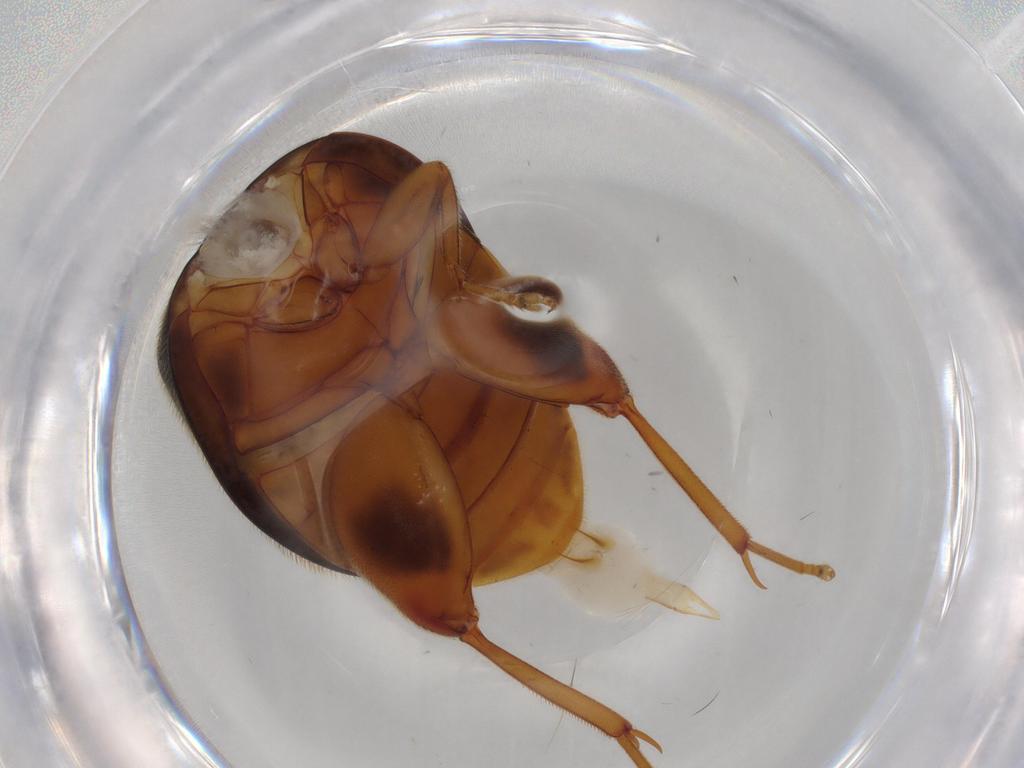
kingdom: Animalia
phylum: Arthropoda
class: Insecta
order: Coleoptera
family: Scirtidae
